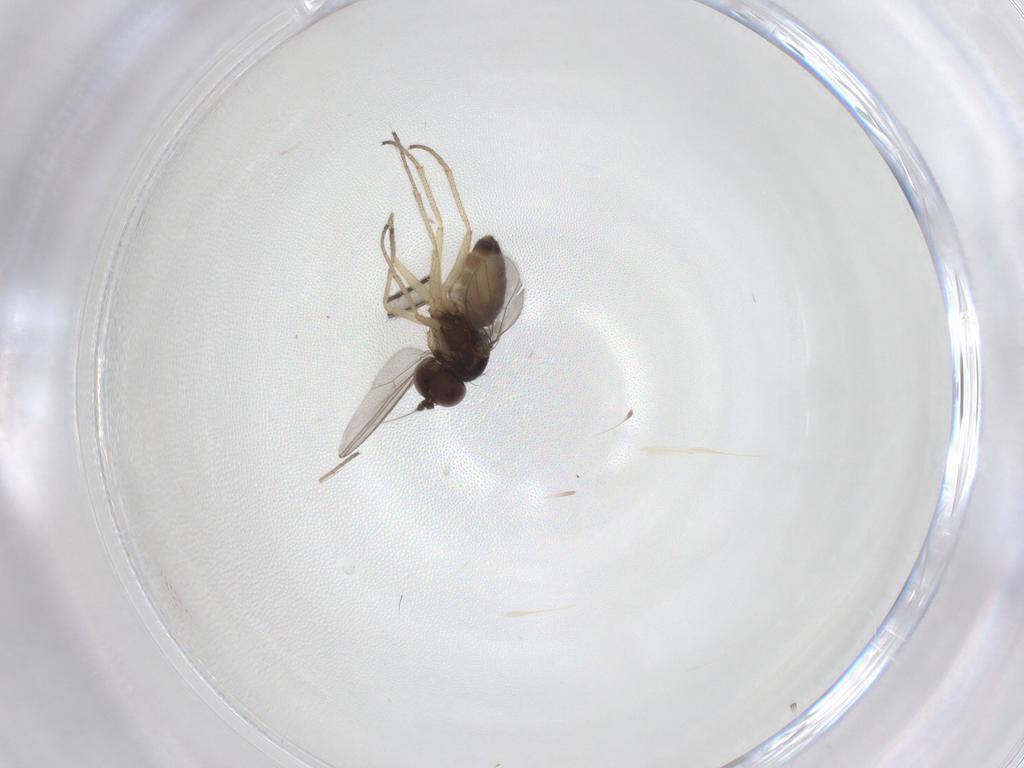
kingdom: Animalia
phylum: Arthropoda
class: Insecta
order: Diptera
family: Dolichopodidae
